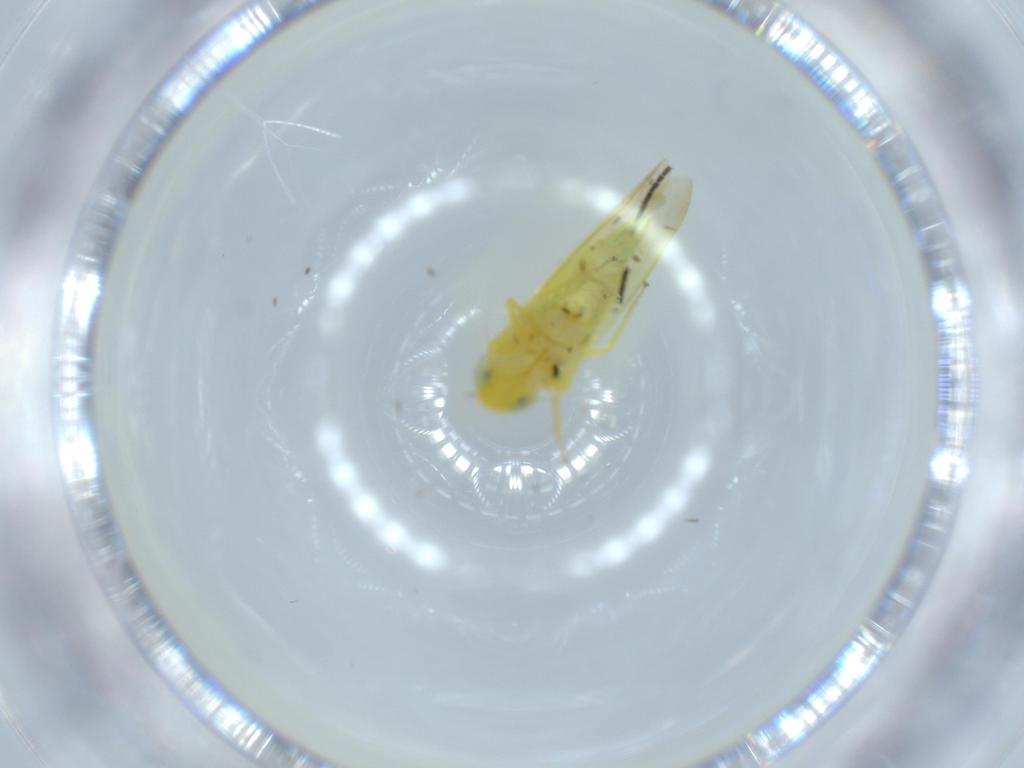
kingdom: Animalia
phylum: Arthropoda
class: Insecta
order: Hemiptera
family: Cicadellidae
